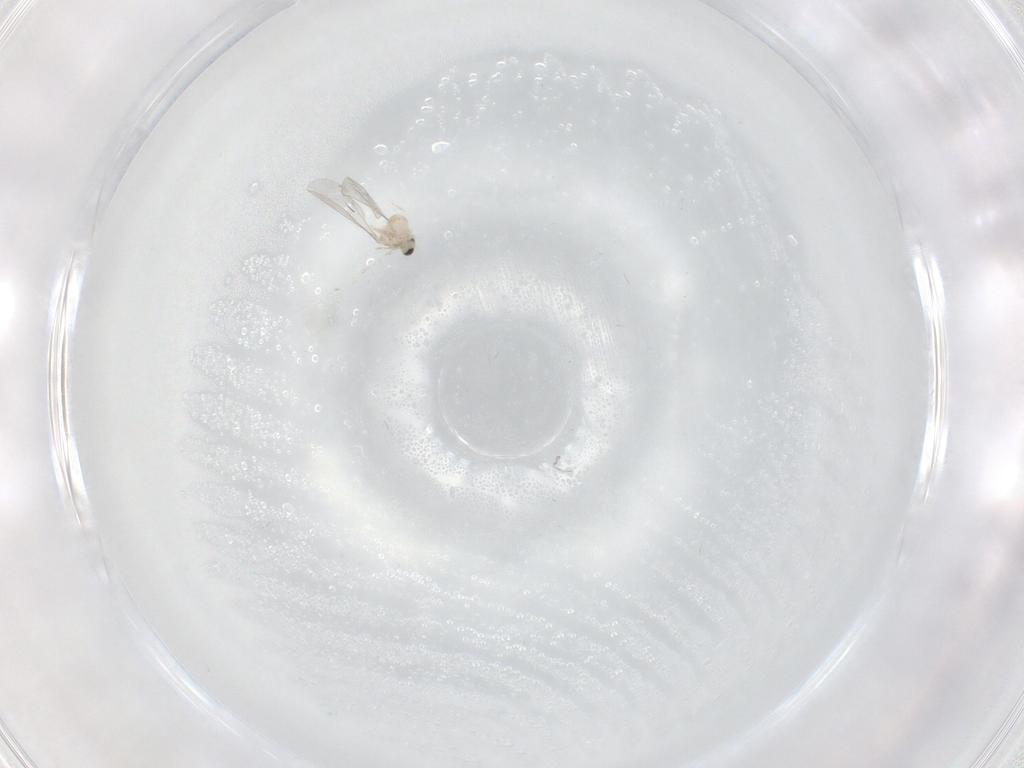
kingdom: Animalia
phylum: Arthropoda
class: Insecta
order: Diptera
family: Cecidomyiidae
